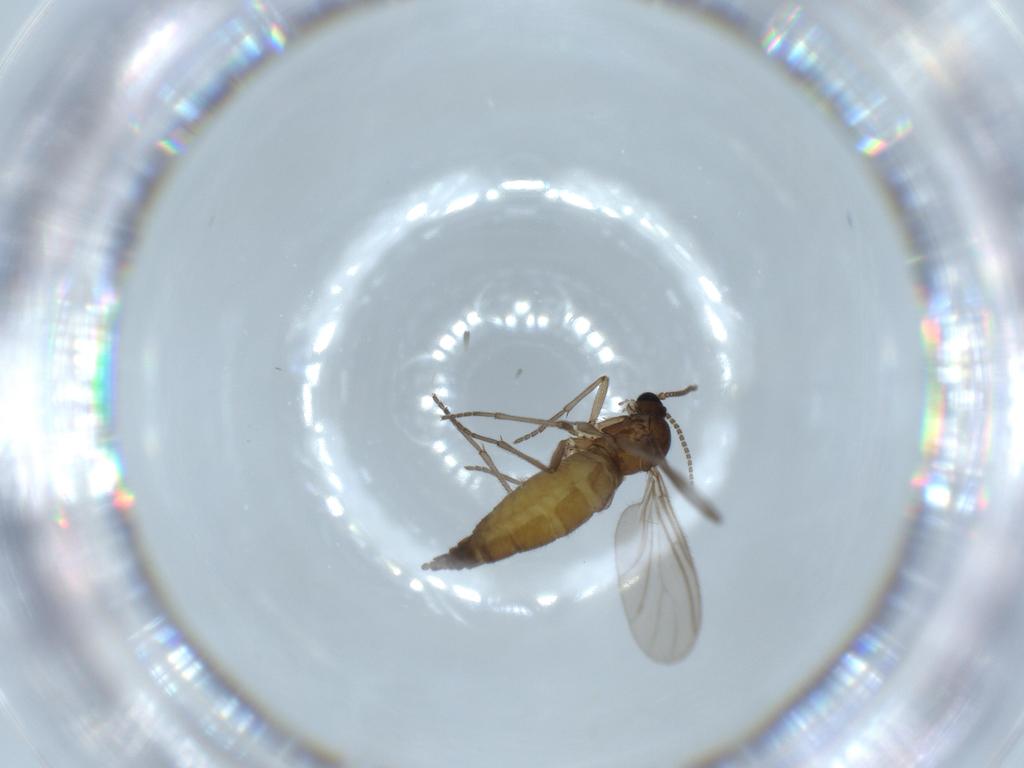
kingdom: Animalia
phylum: Arthropoda
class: Insecta
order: Diptera
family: Sciaridae
